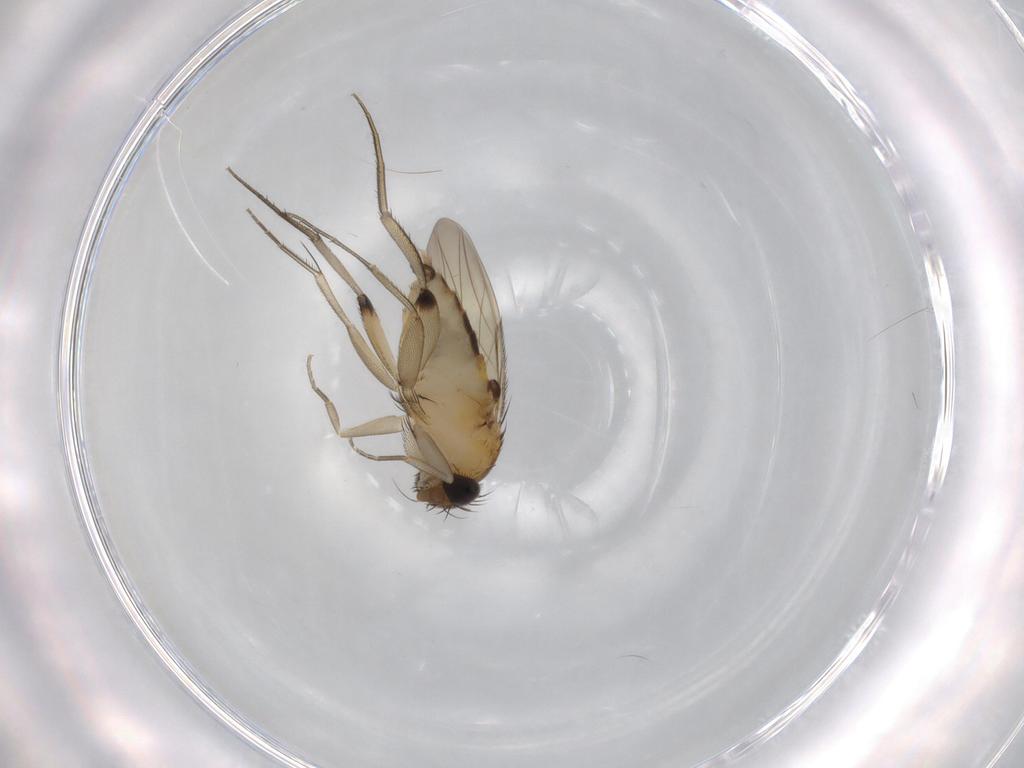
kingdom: Animalia
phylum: Arthropoda
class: Insecta
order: Diptera
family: Phoridae
